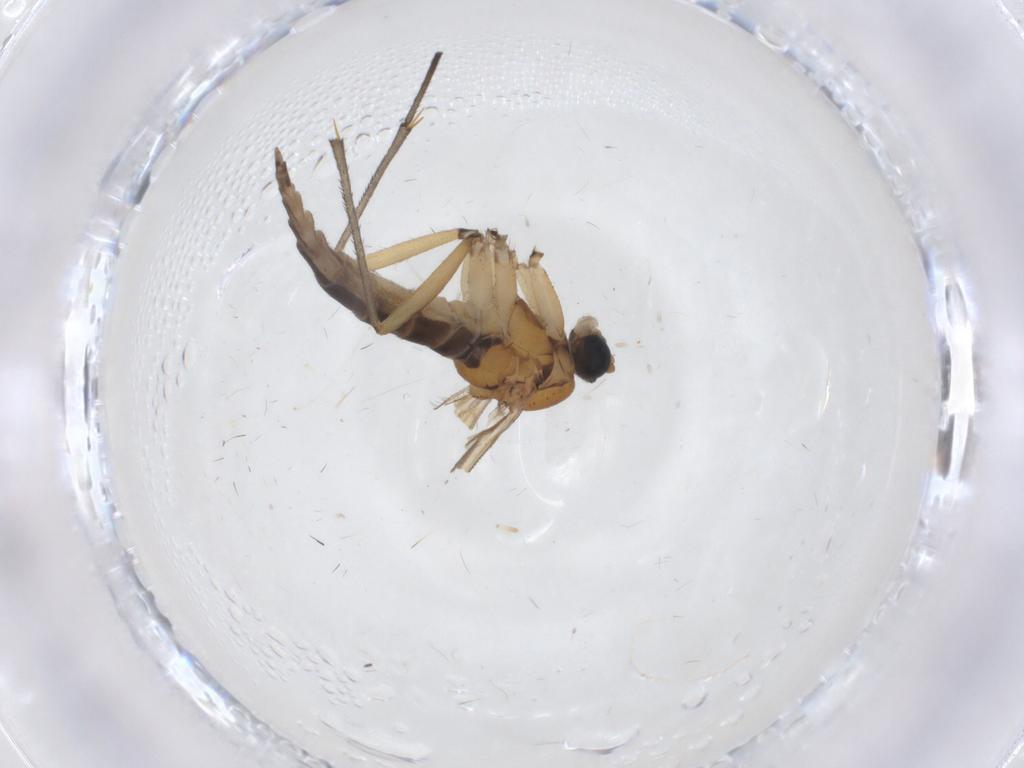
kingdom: Animalia
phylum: Arthropoda
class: Insecta
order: Diptera
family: Sciaridae
